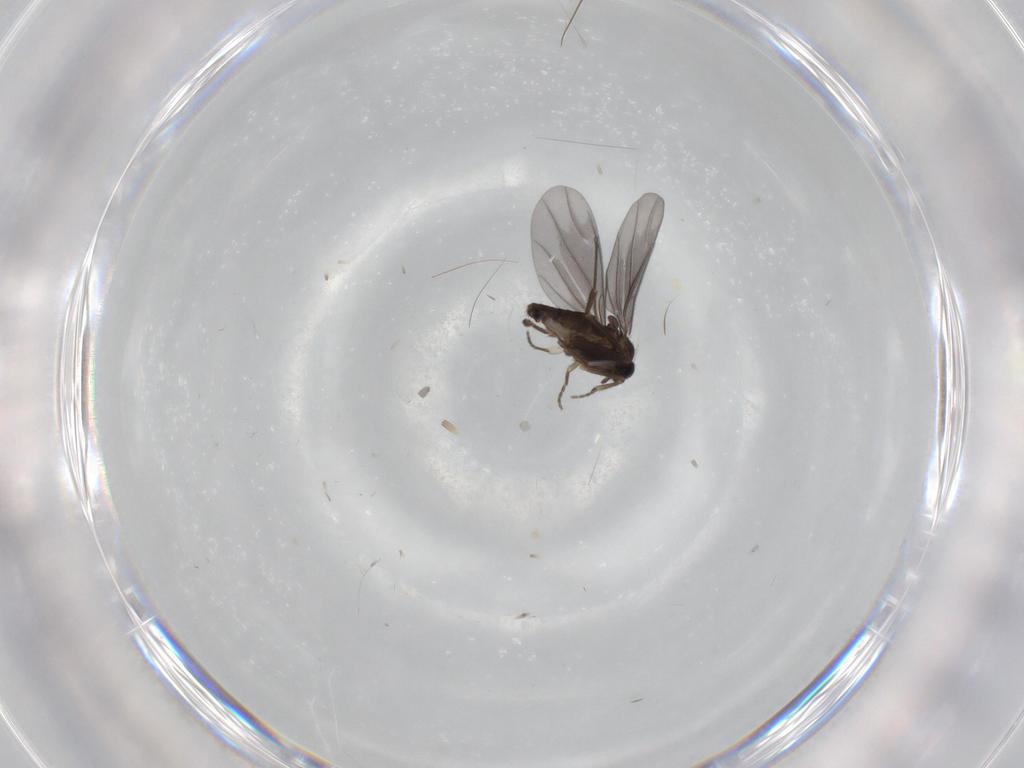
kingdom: Animalia
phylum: Arthropoda
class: Insecta
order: Diptera
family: Phoridae
